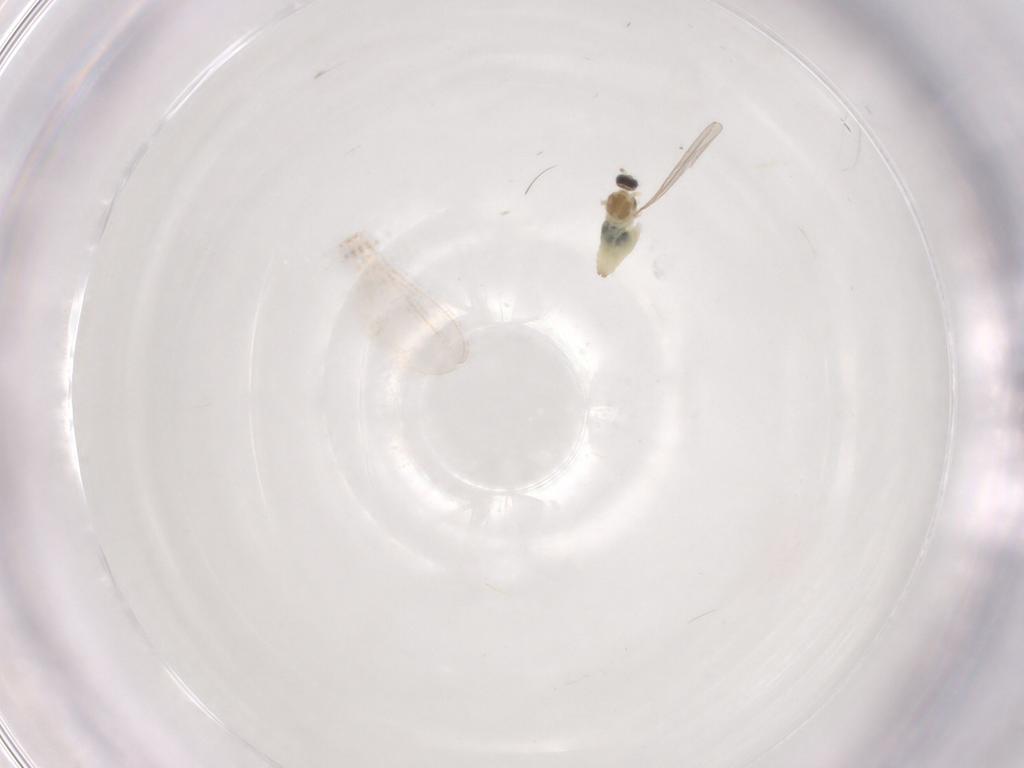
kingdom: Animalia
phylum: Arthropoda
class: Insecta
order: Diptera
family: Cecidomyiidae
